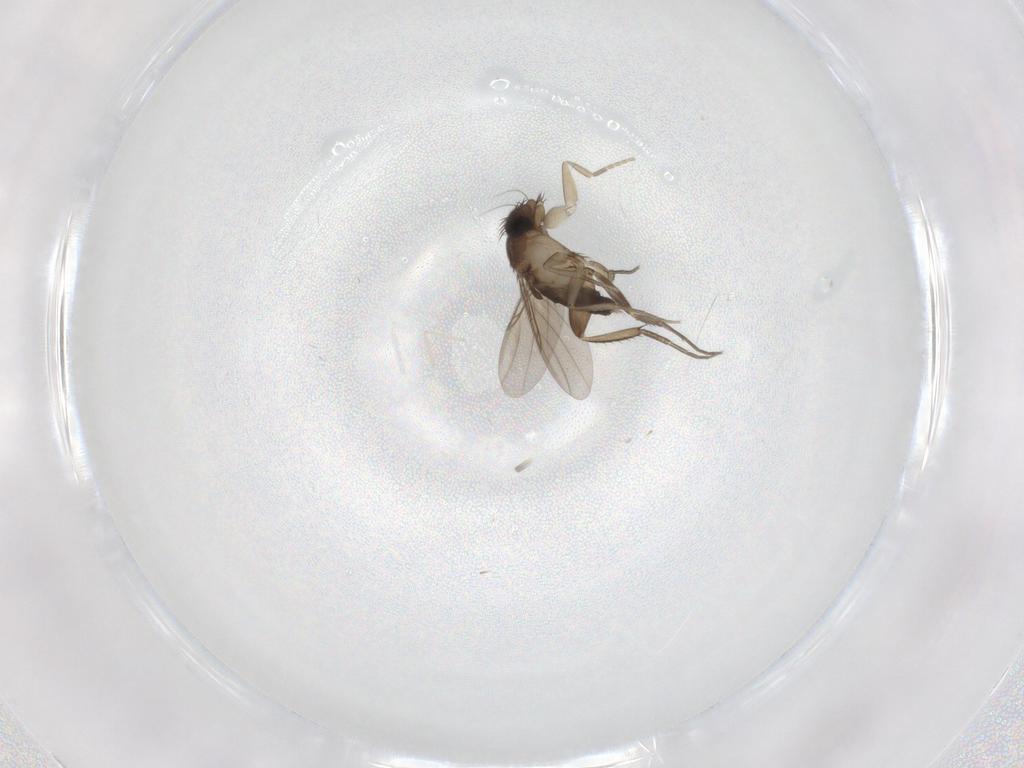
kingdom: Animalia
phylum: Arthropoda
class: Insecta
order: Diptera
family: Phoridae
